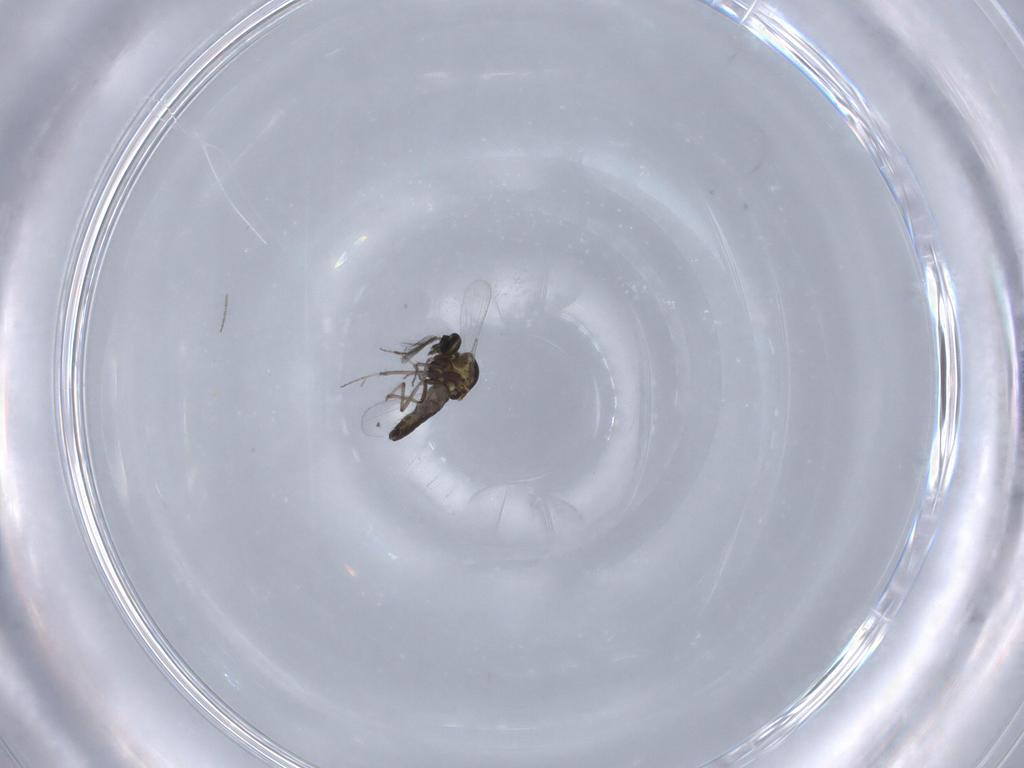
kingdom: Animalia
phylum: Arthropoda
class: Insecta
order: Diptera
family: Ceratopogonidae
